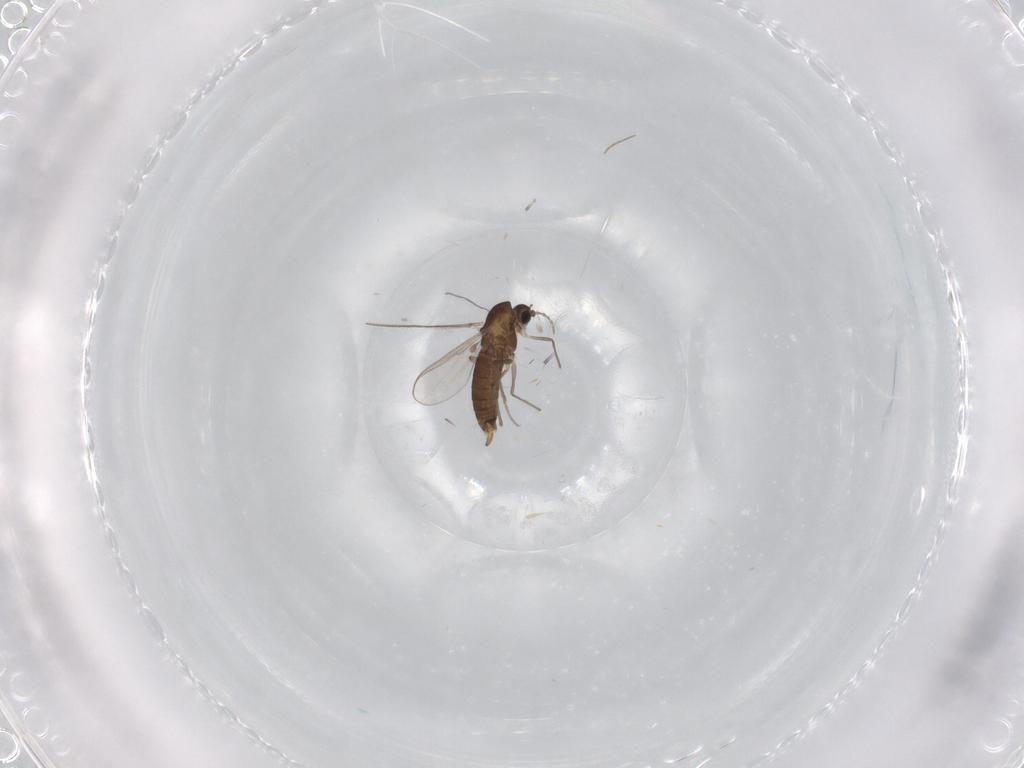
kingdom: Animalia
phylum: Arthropoda
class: Insecta
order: Diptera
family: Chironomidae
